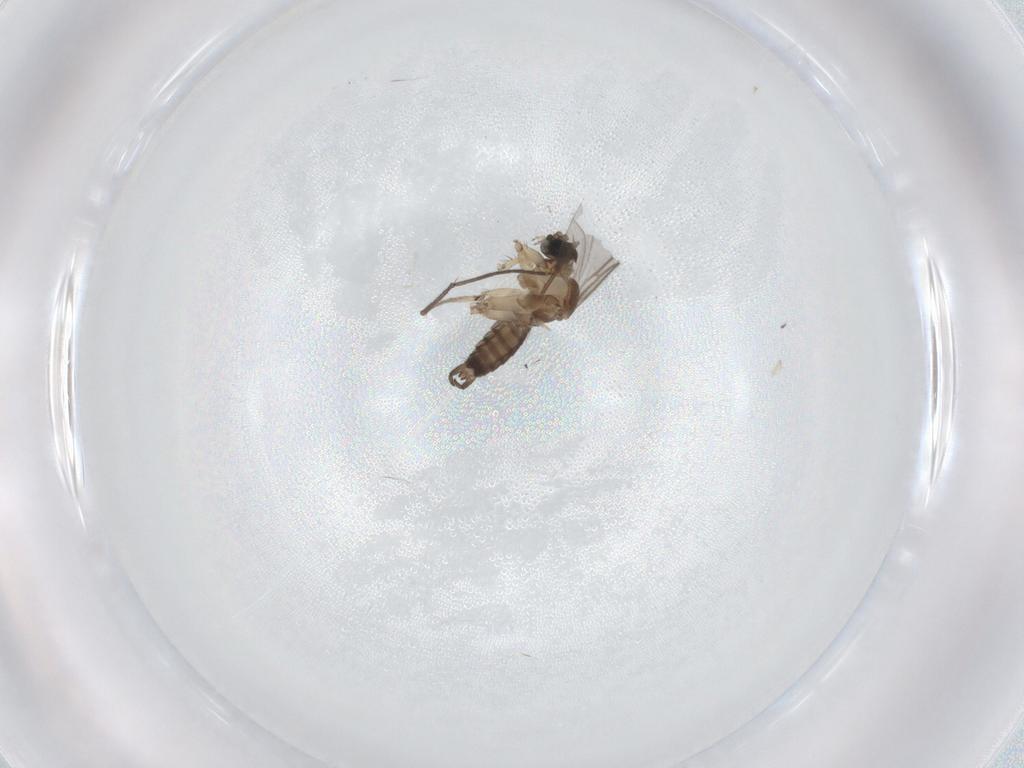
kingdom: Animalia
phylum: Arthropoda
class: Insecta
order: Diptera
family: Sciaridae
